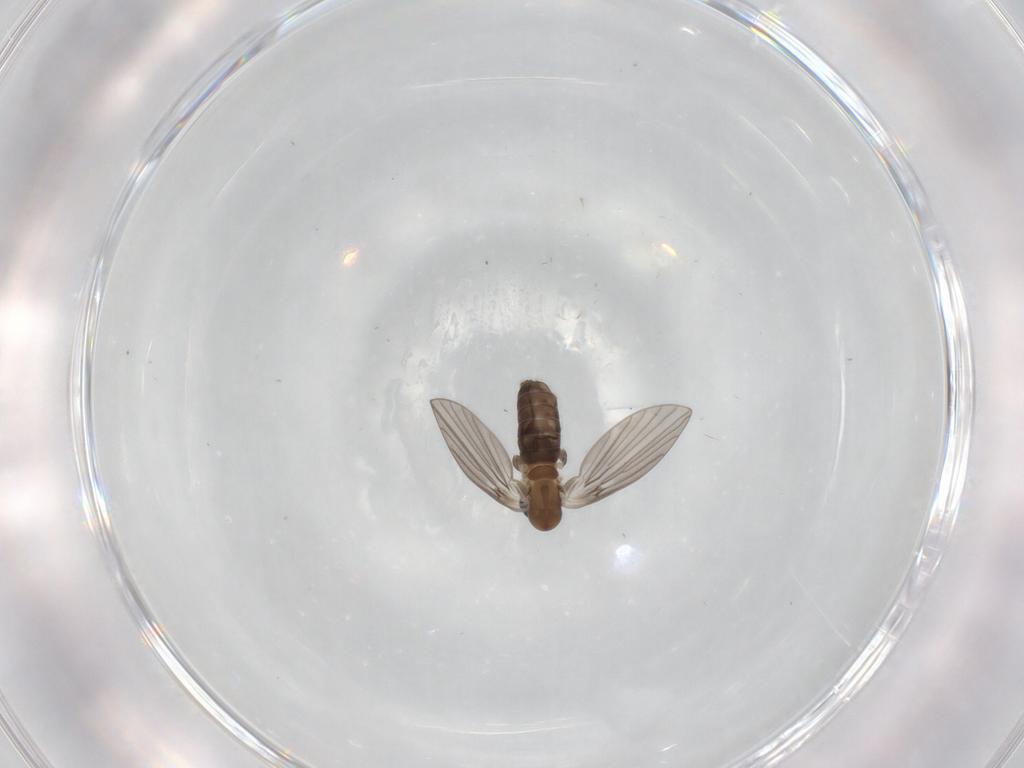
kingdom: Animalia
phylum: Arthropoda
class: Insecta
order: Diptera
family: Psychodidae
